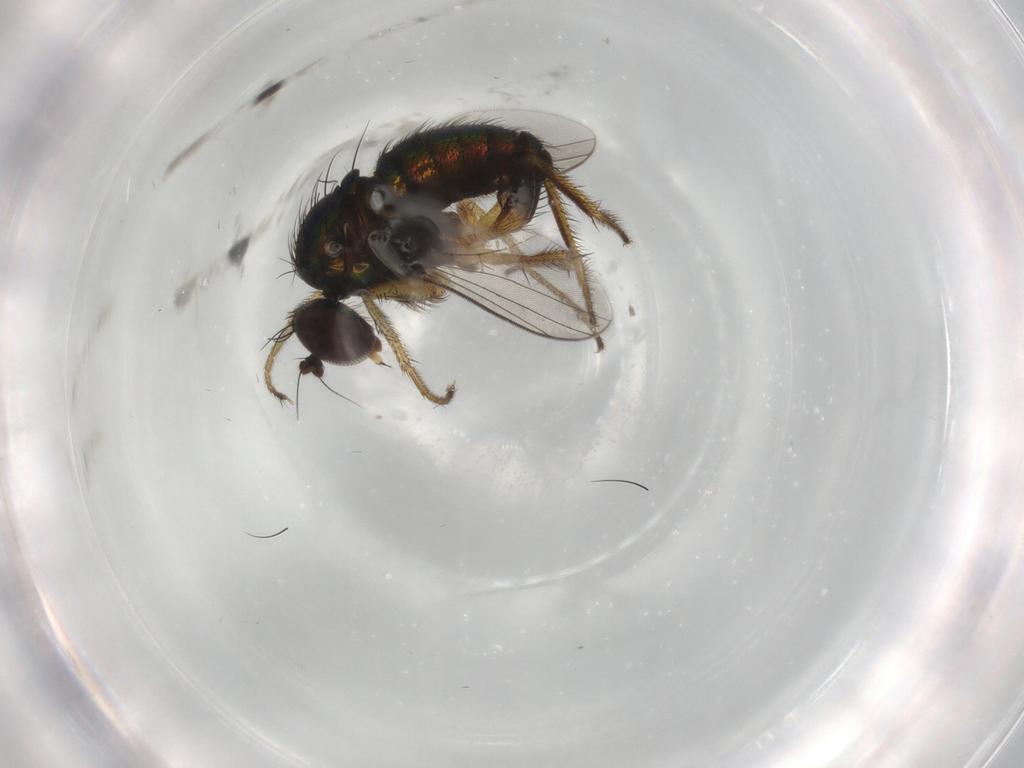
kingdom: Animalia
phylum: Arthropoda
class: Insecta
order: Diptera
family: Dolichopodidae
